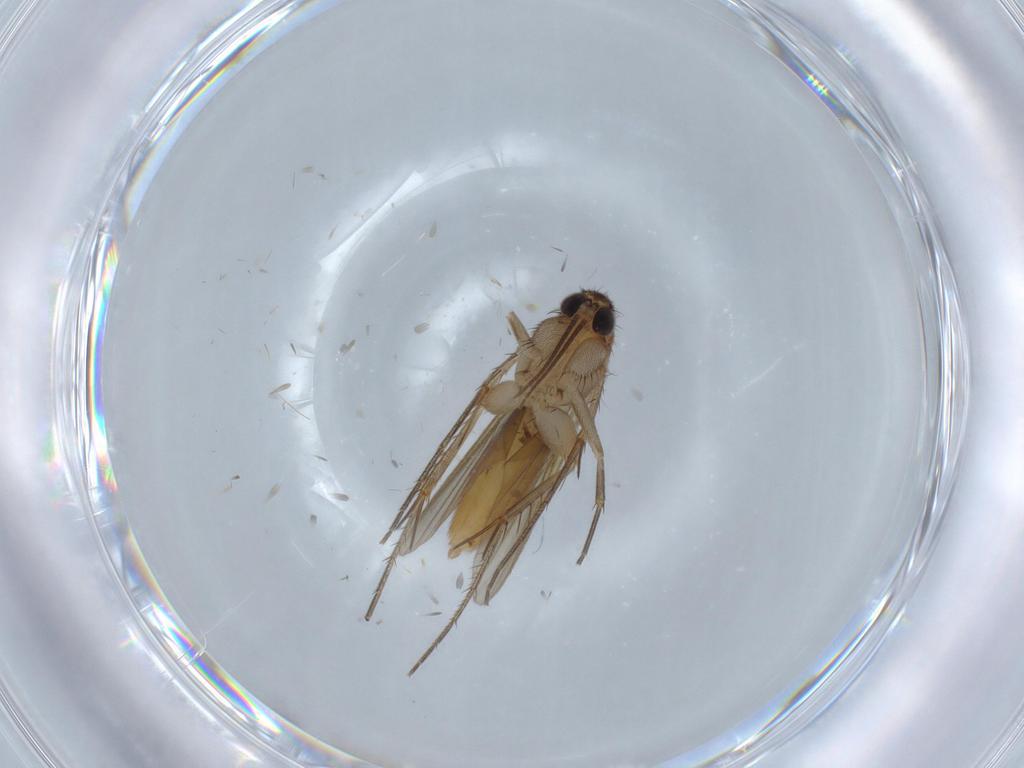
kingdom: Animalia
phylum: Arthropoda
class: Insecta
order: Diptera
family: Mycetophilidae
